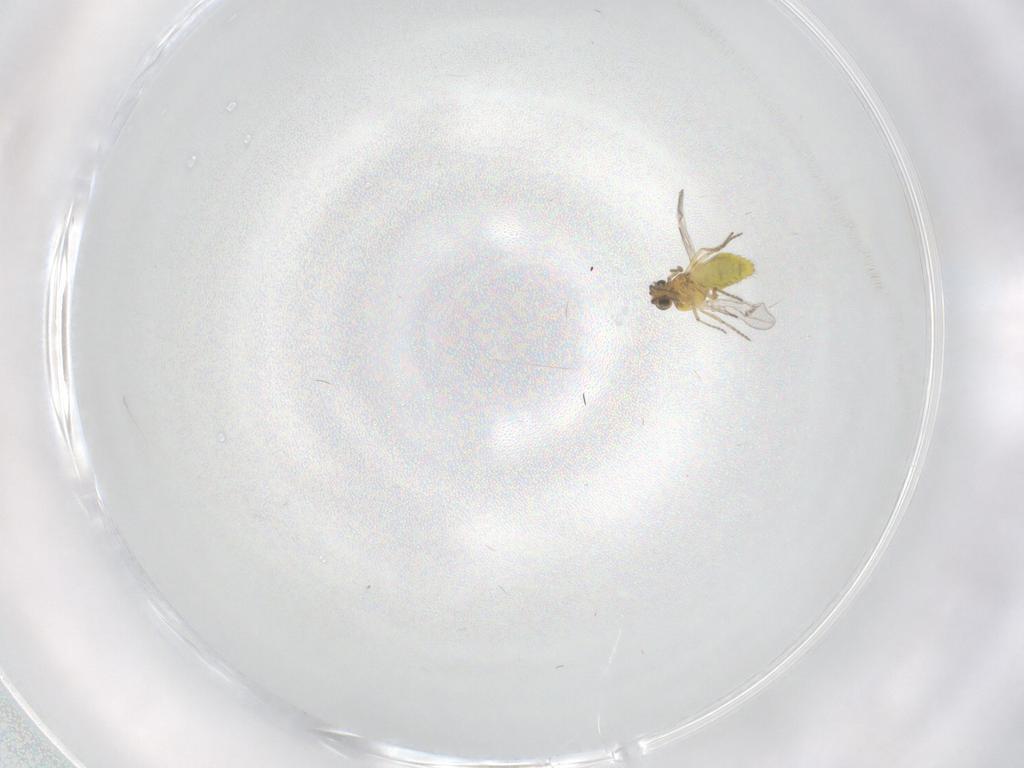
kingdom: Animalia
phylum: Arthropoda
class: Insecta
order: Diptera
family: Cecidomyiidae
